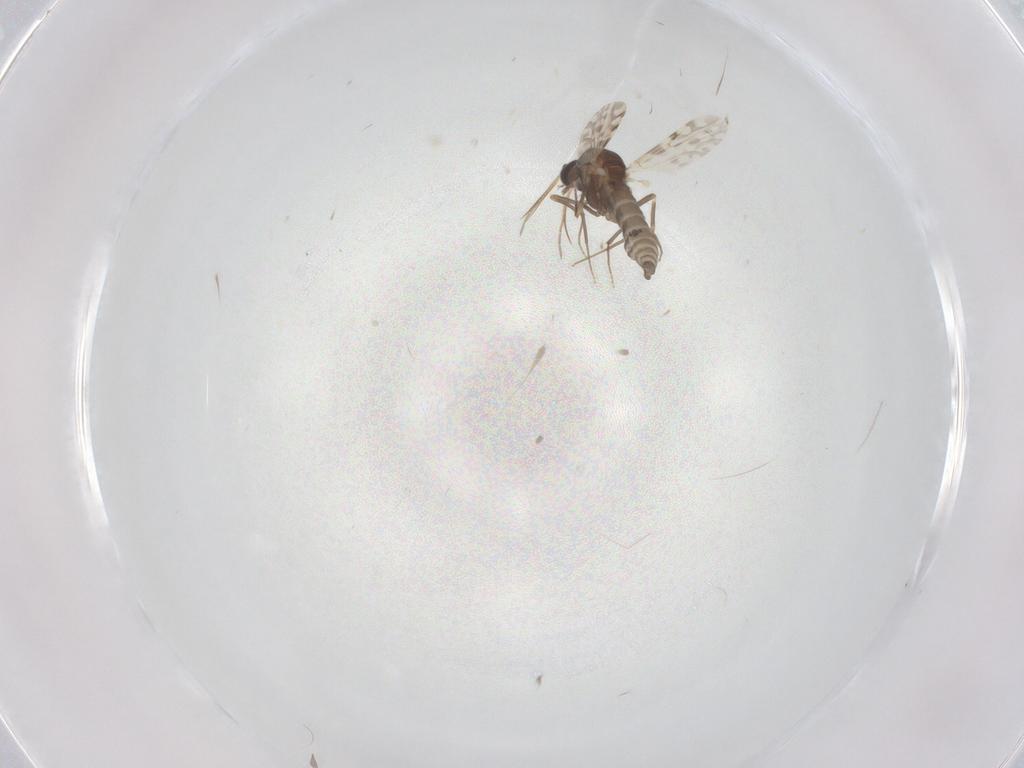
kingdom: Animalia
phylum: Arthropoda
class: Insecta
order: Diptera
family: Ceratopogonidae
